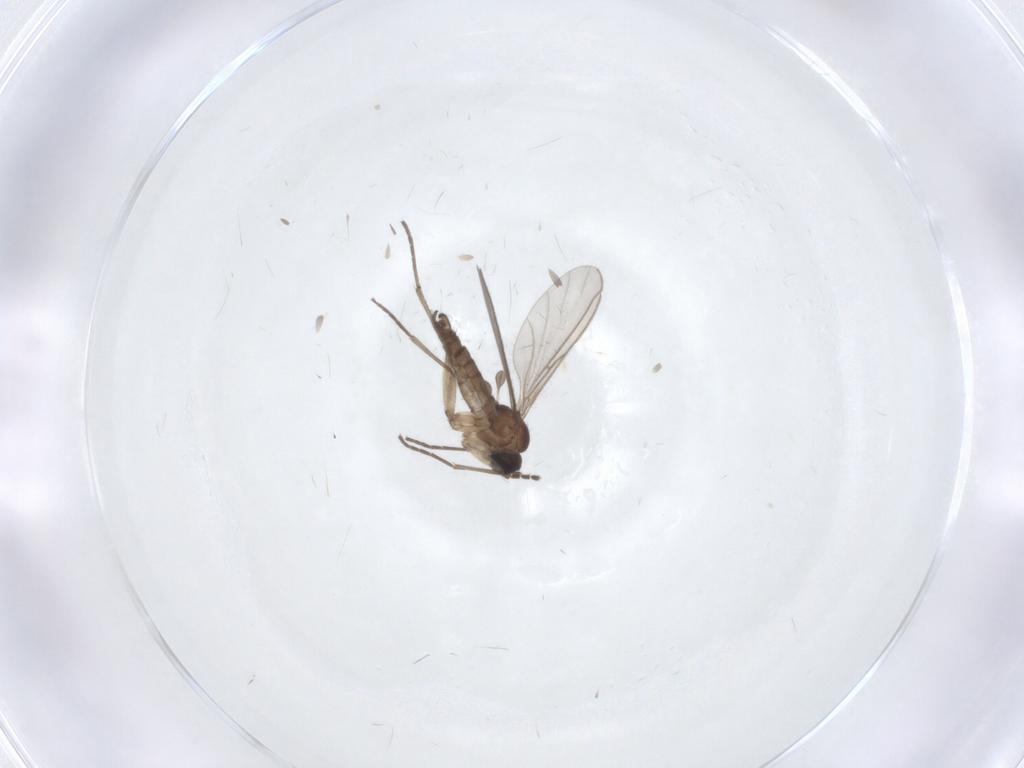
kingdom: Animalia
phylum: Arthropoda
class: Insecta
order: Diptera
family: Sciaridae
